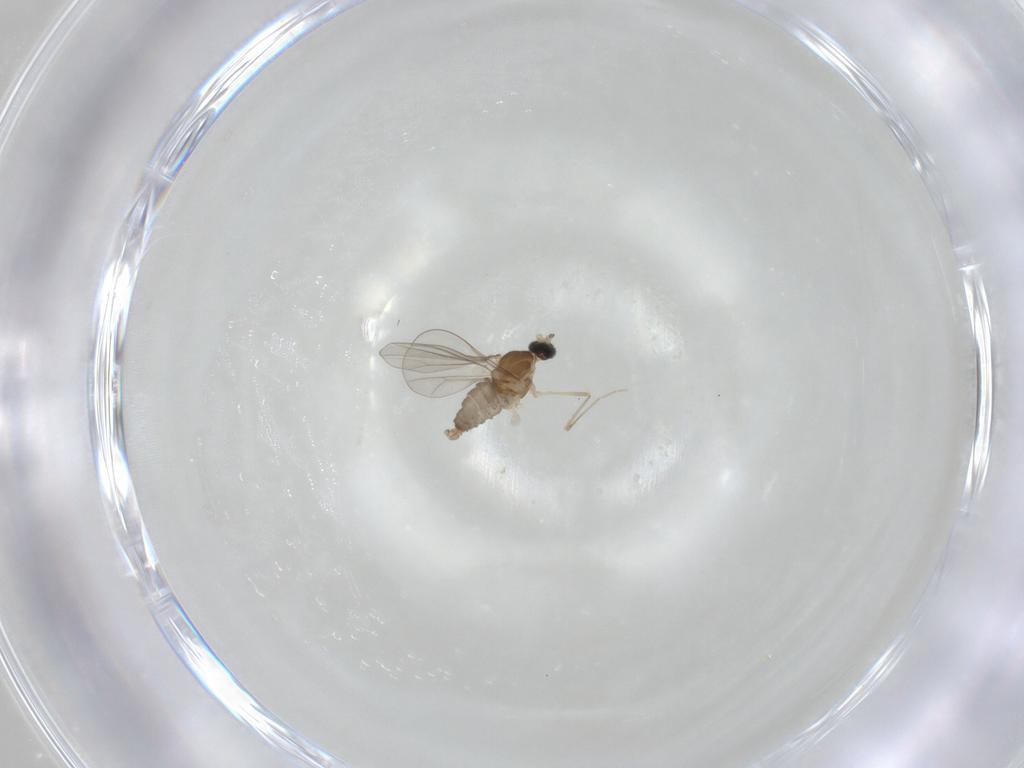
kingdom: Animalia
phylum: Arthropoda
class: Insecta
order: Diptera
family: Cecidomyiidae
